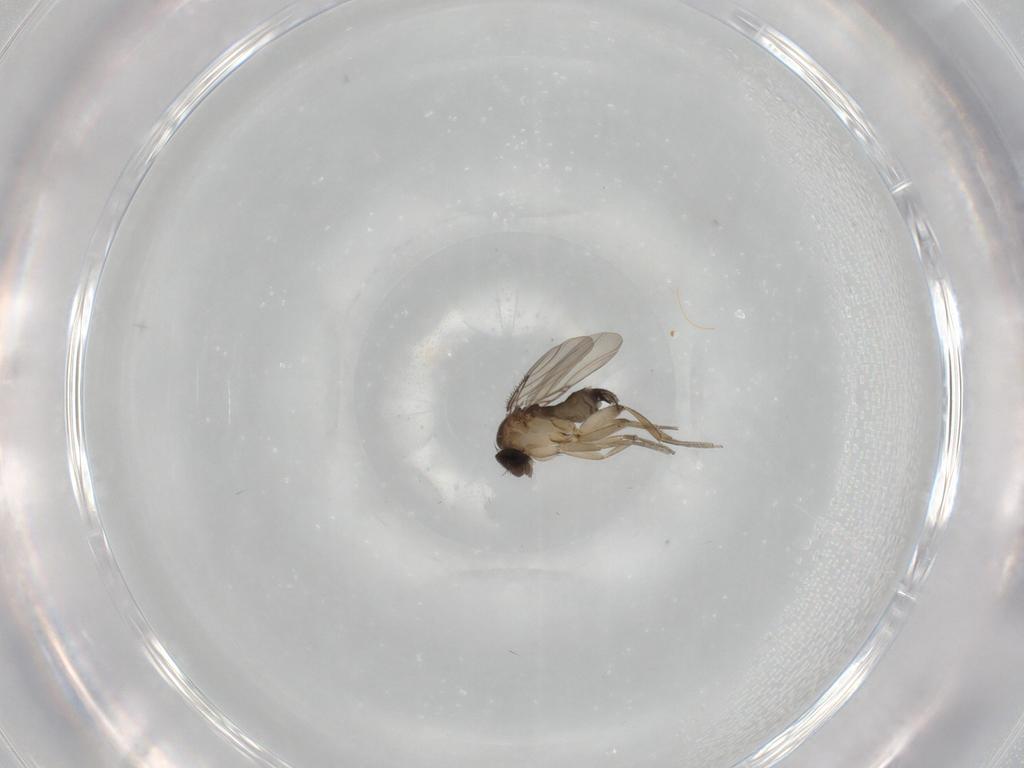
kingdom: Animalia
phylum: Arthropoda
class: Insecta
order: Diptera
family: Phoridae
